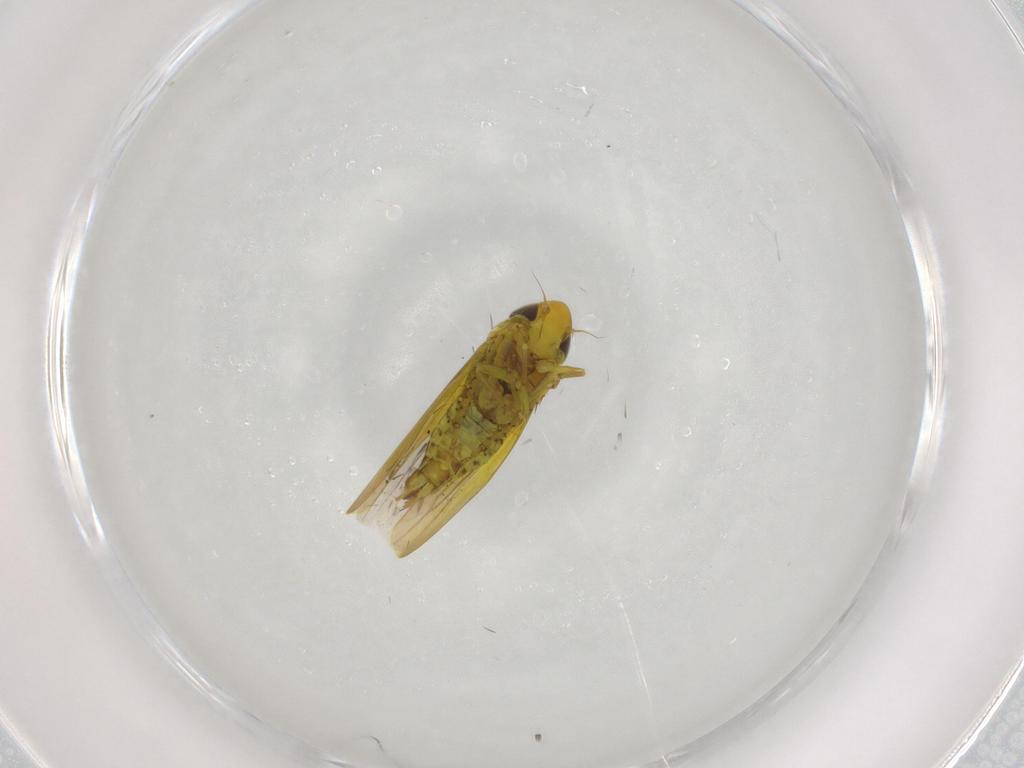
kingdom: Animalia
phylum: Arthropoda
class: Insecta
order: Hemiptera
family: Cicadellidae
